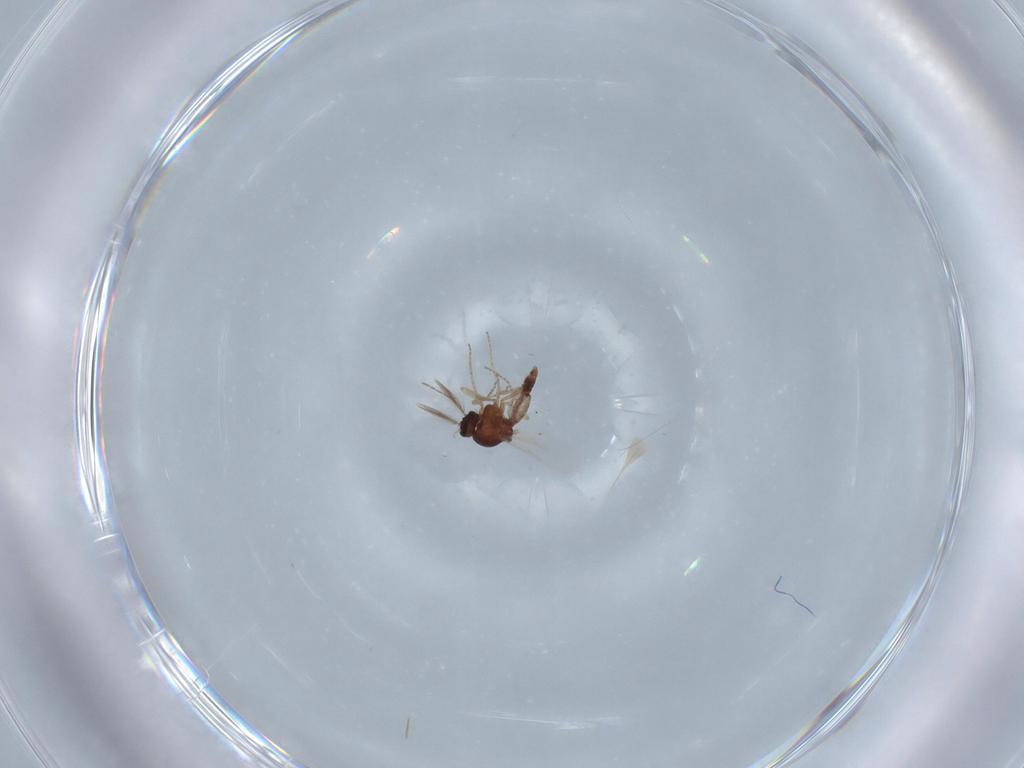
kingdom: Animalia
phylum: Arthropoda
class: Insecta
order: Diptera
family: Ceratopogonidae
